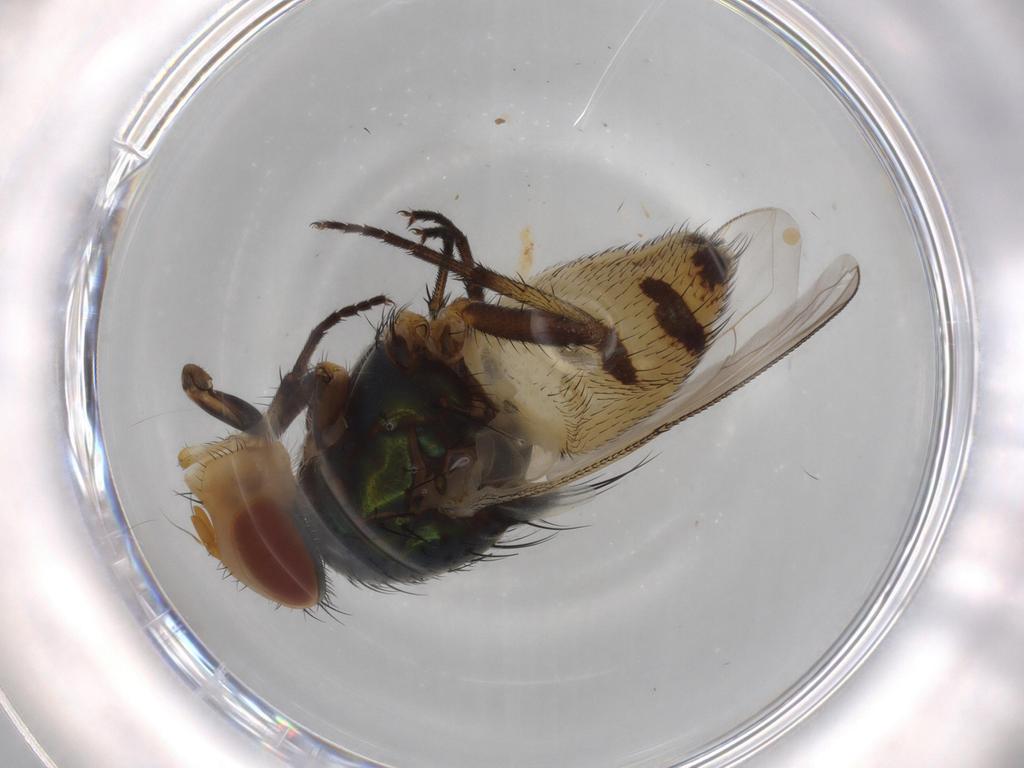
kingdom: Animalia
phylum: Arthropoda
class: Insecta
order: Diptera
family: Calliphoridae
